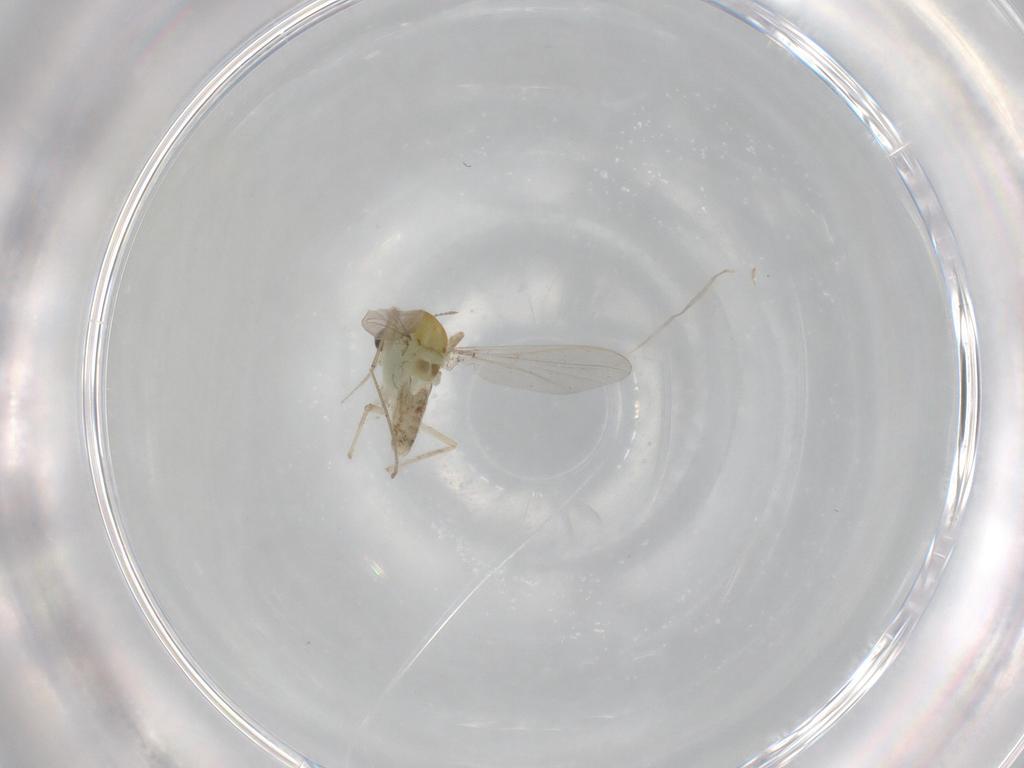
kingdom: Animalia
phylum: Arthropoda
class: Insecta
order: Diptera
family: Chironomidae
